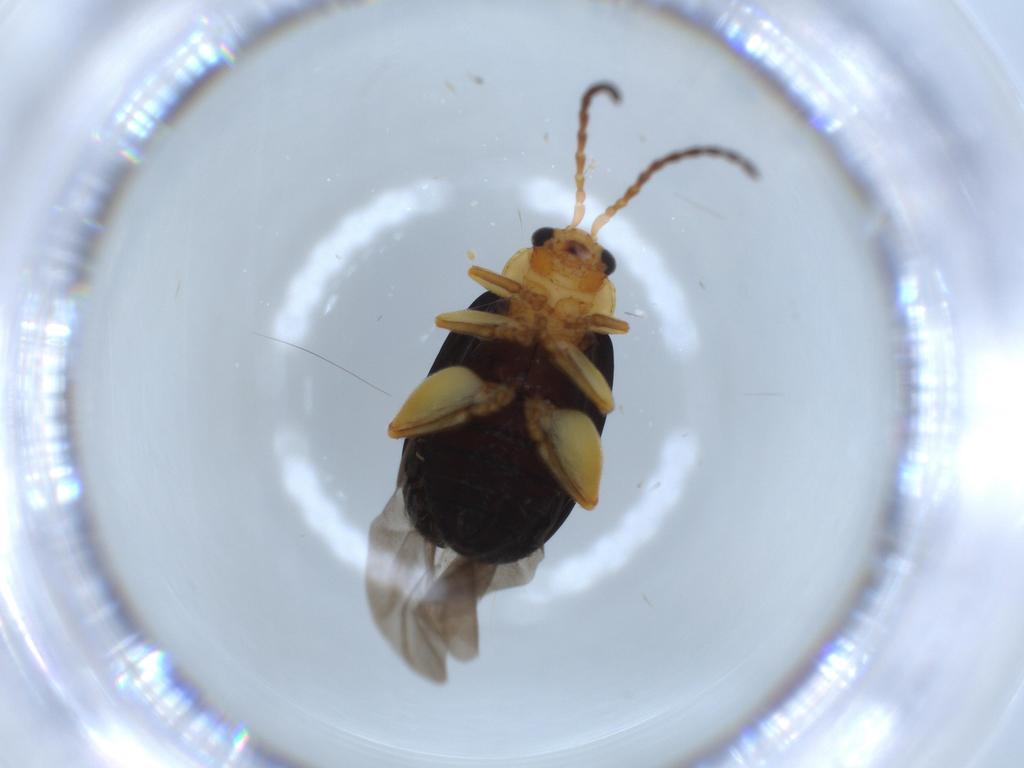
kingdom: Animalia
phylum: Arthropoda
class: Insecta
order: Coleoptera
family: Chrysomelidae
